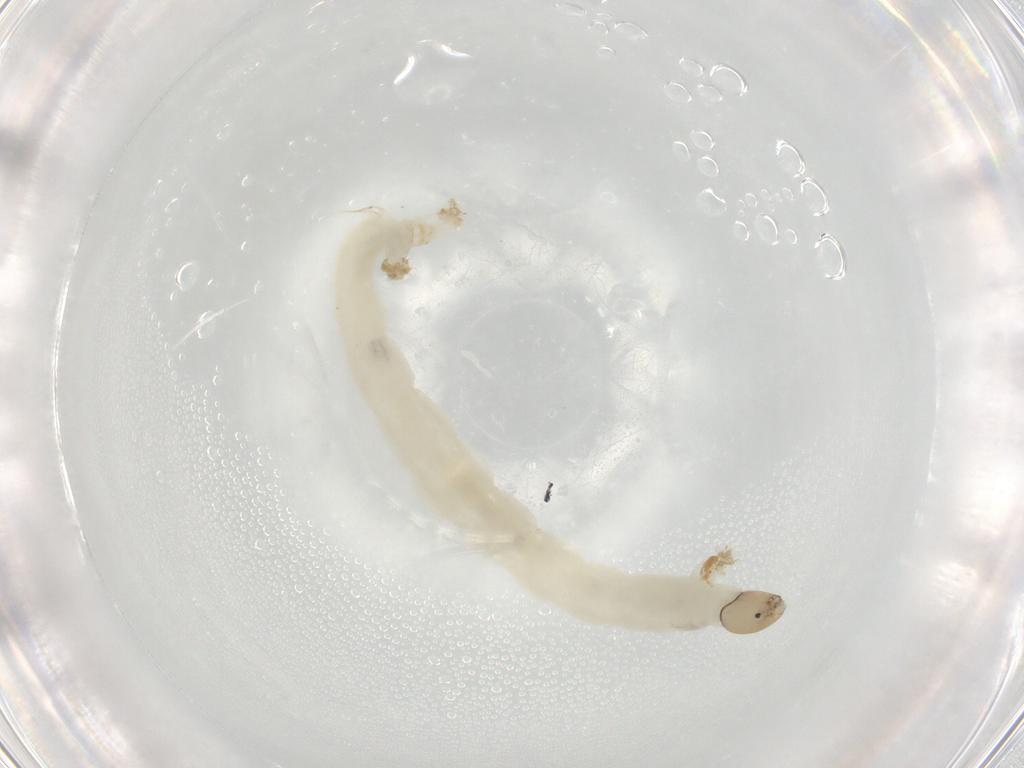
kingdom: Animalia
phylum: Arthropoda
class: Insecta
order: Diptera
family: Chironomidae
